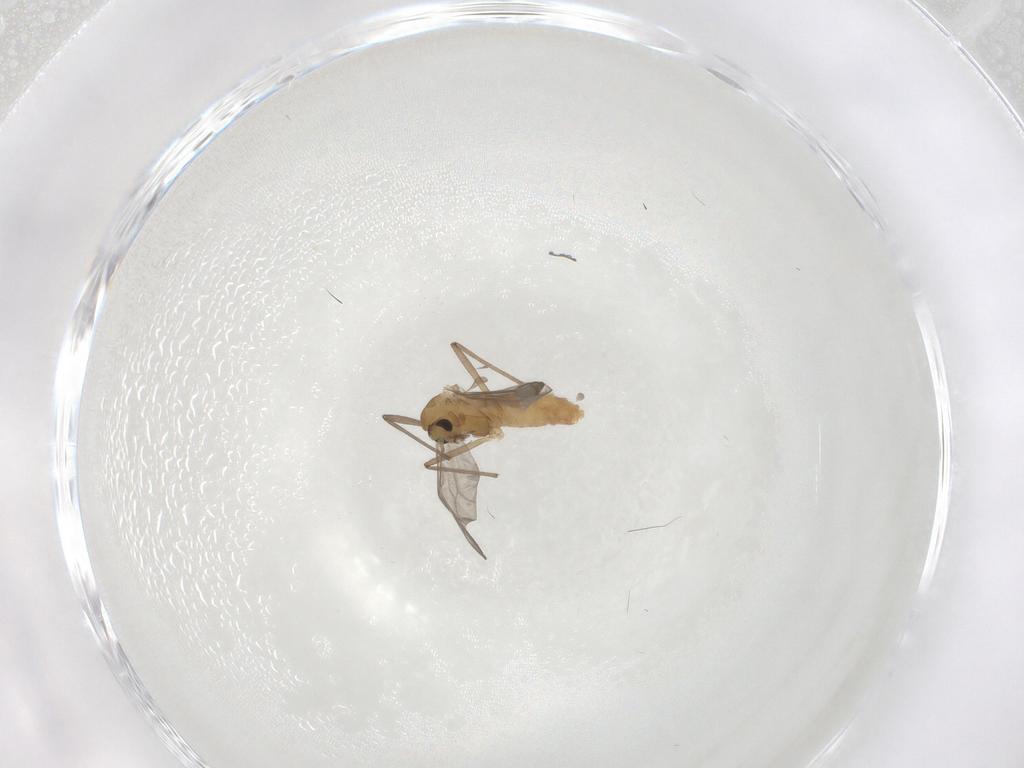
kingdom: Animalia
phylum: Arthropoda
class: Insecta
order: Diptera
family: Chironomidae
